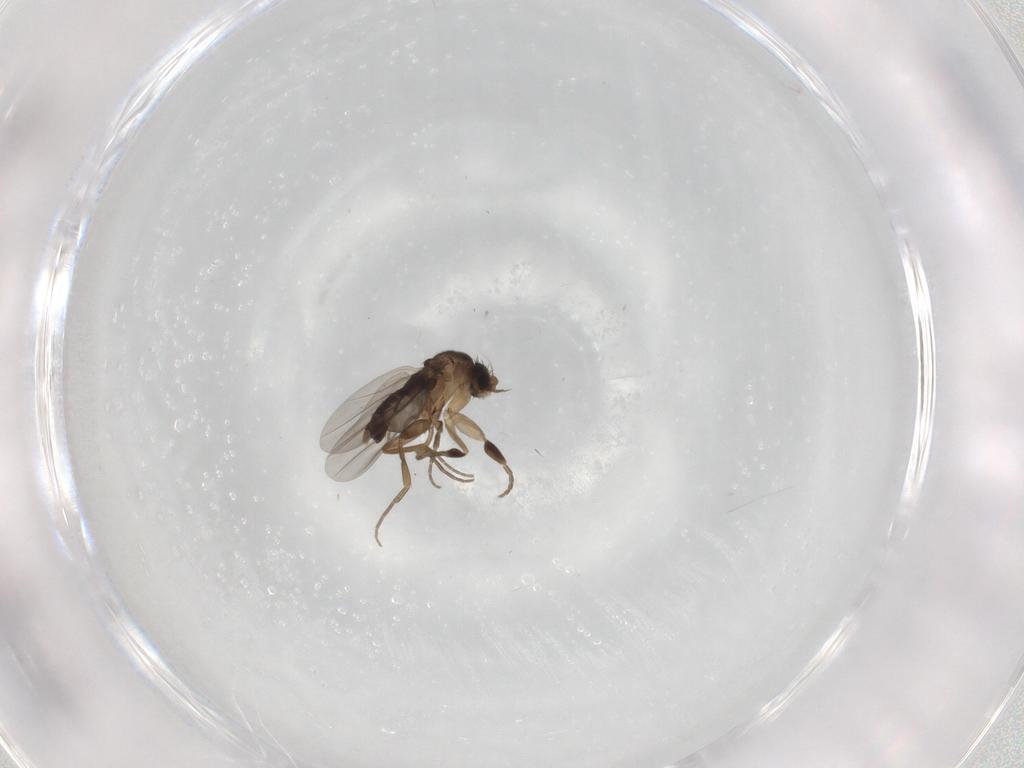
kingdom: Animalia
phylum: Arthropoda
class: Insecta
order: Diptera
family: Phoridae
